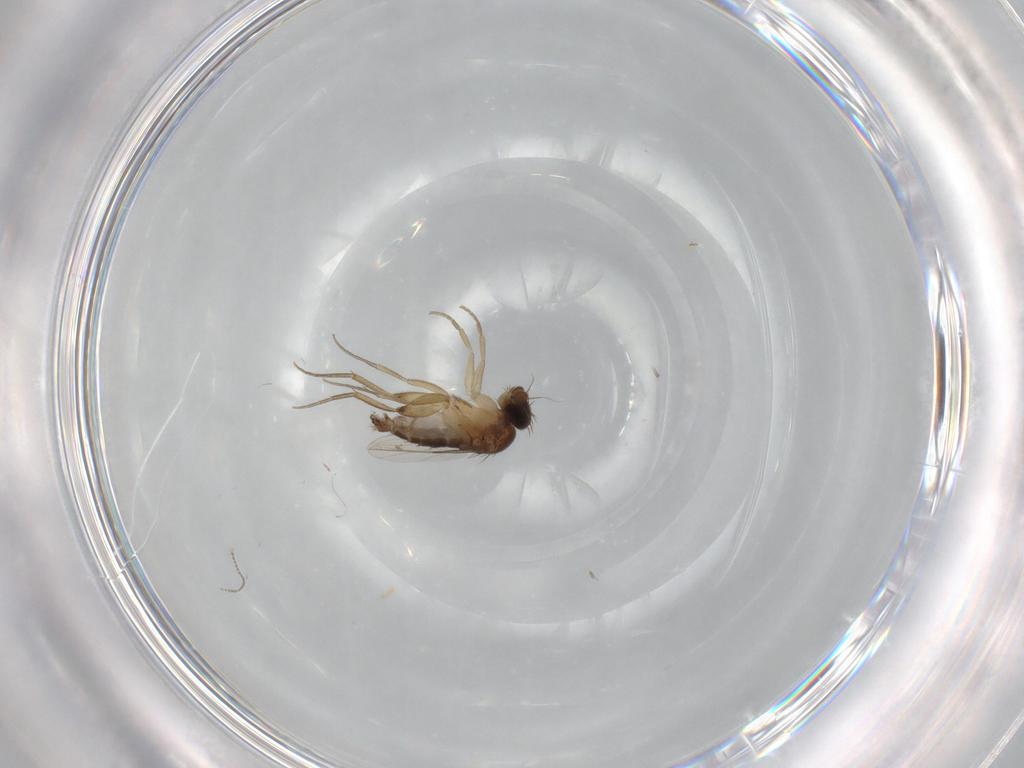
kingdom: Animalia
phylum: Arthropoda
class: Insecta
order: Diptera
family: Phoridae
